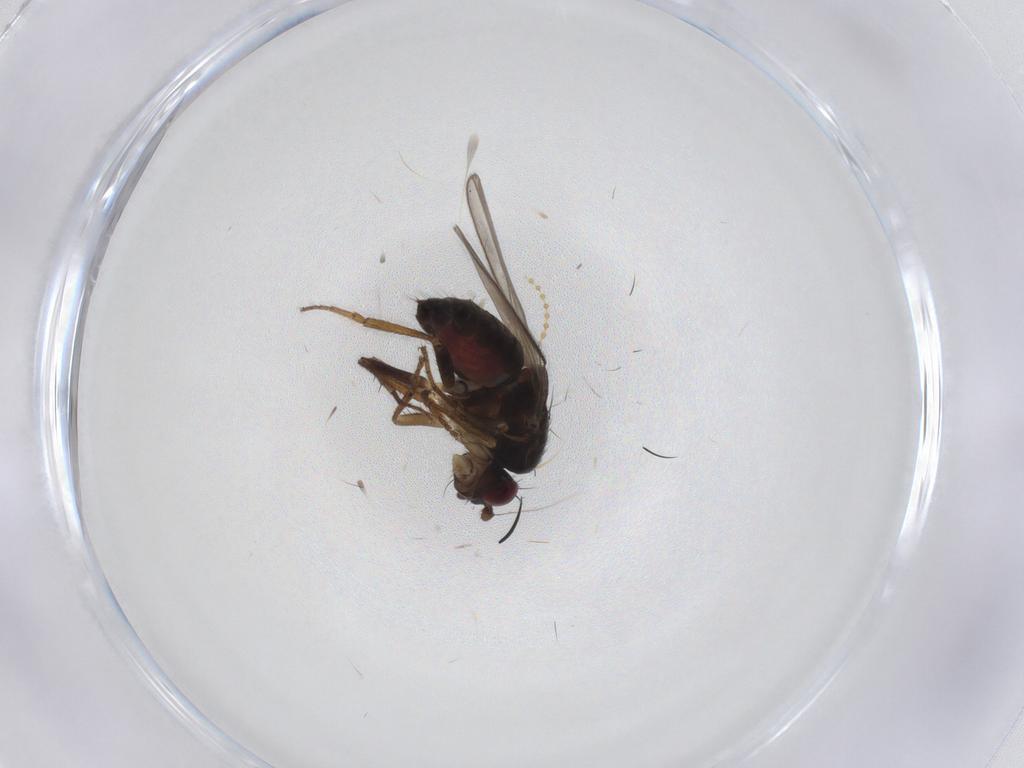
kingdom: Animalia
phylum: Arthropoda
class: Insecta
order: Diptera
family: Sphaeroceridae
